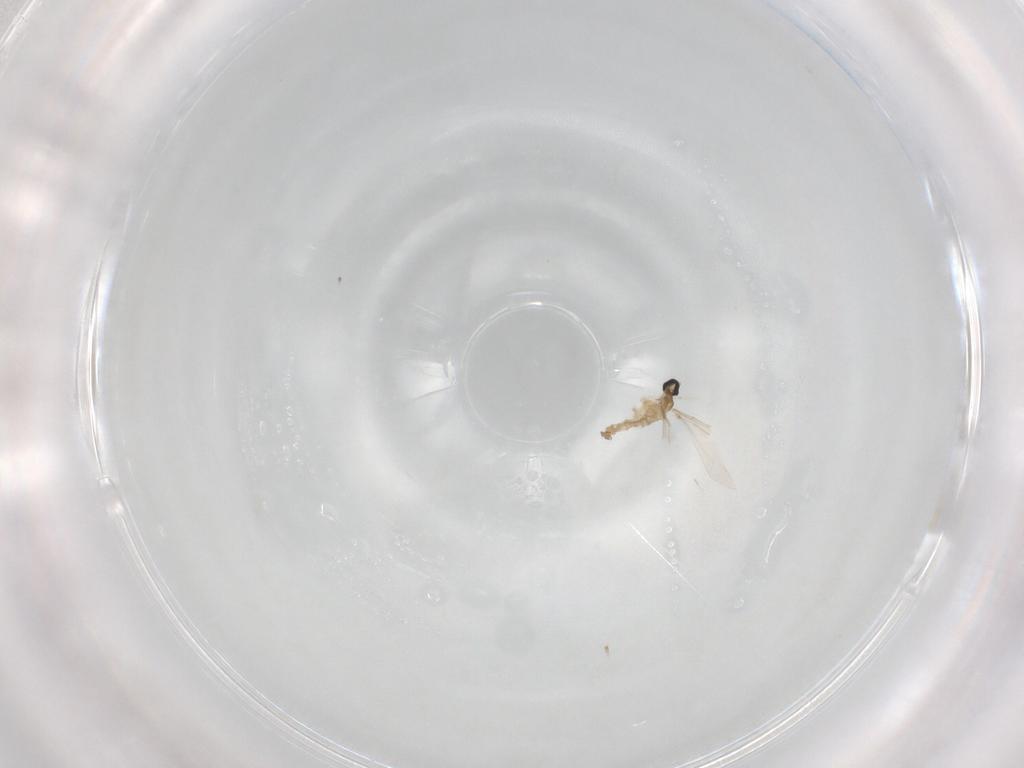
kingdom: Animalia
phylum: Arthropoda
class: Insecta
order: Diptera
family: Cecidomyiidae
